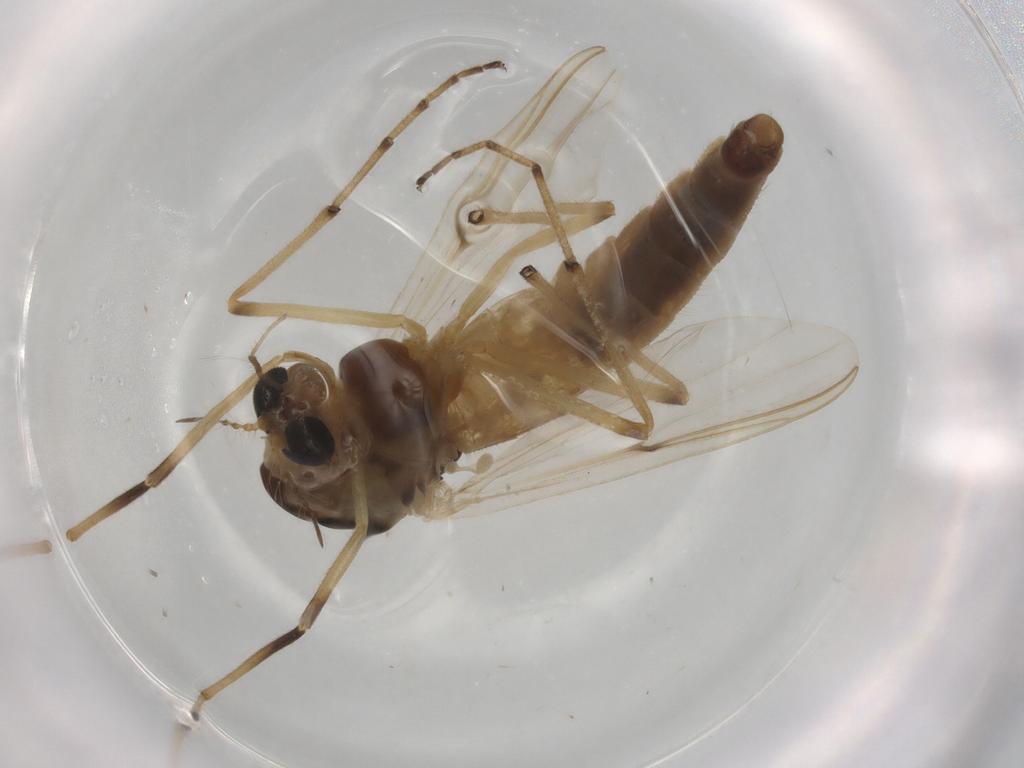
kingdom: Animalia
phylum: Arthropoda
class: Insecta
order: Diptera
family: Chironomidae
